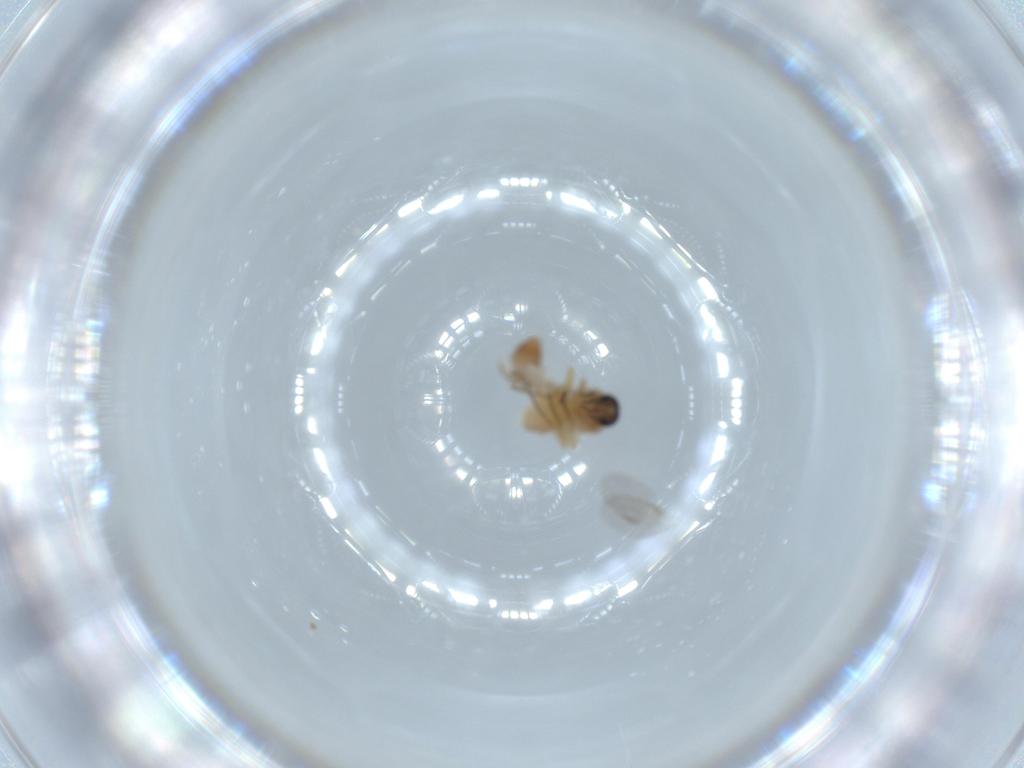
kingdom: Animalia
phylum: Arthropoda
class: Insecta
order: Diptera
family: Ceratopogonidae
